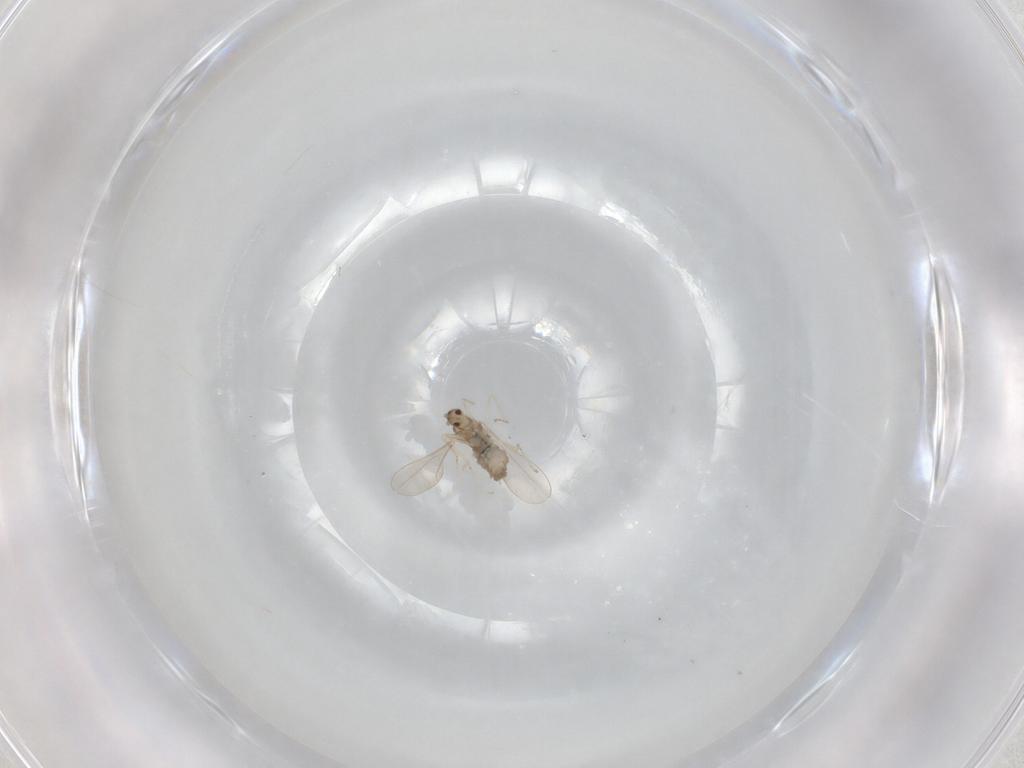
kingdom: Animalia
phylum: Arthropoda
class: Insecta
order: Diptera
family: Cecidomyiidae
